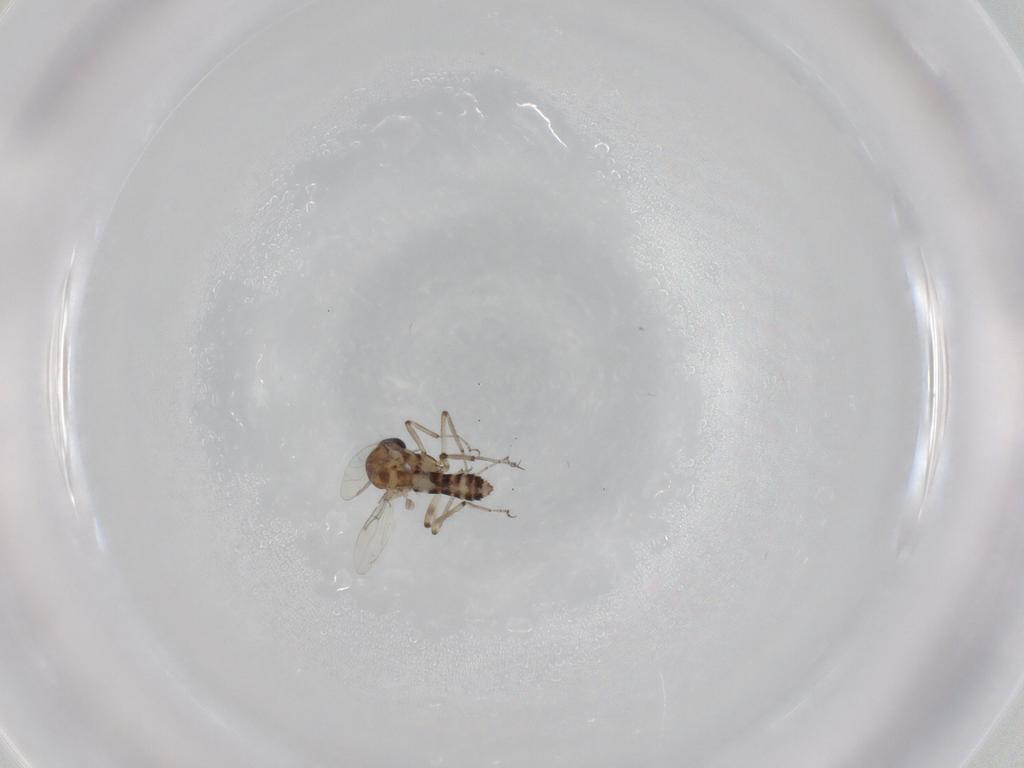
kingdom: Animalia
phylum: Arthropoda
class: Insecta
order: Diptera
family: Ceratopogonidae
